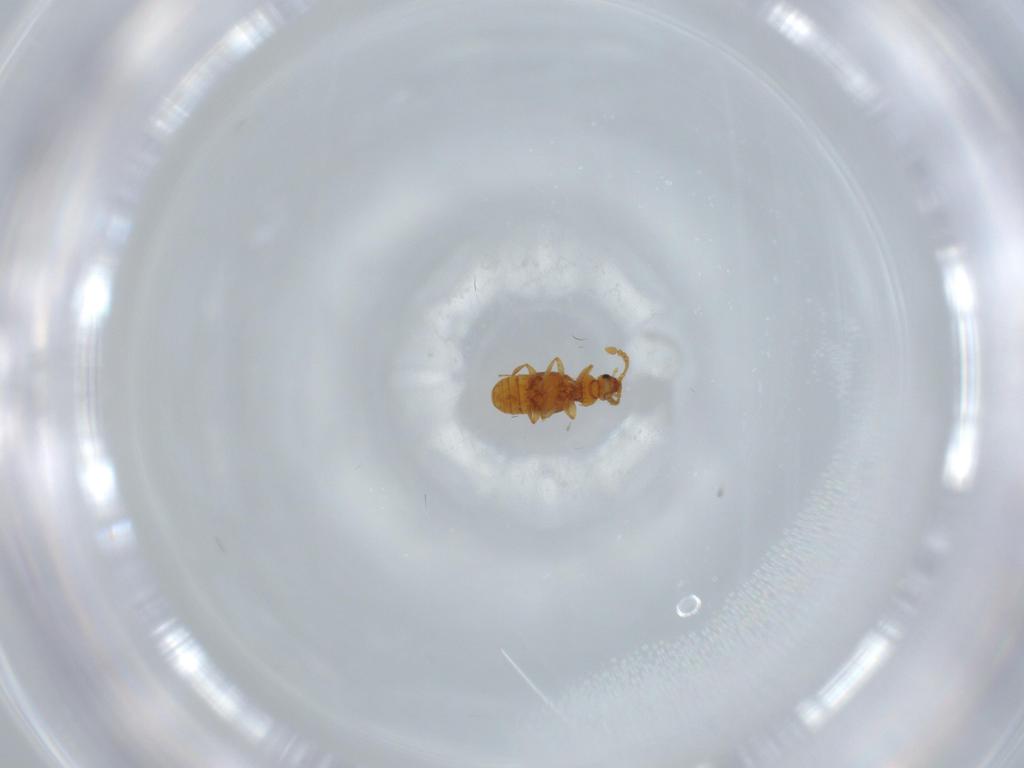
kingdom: Animalia
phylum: Arthropoda
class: Insecta
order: Coleoptera
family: Staphylinidae
